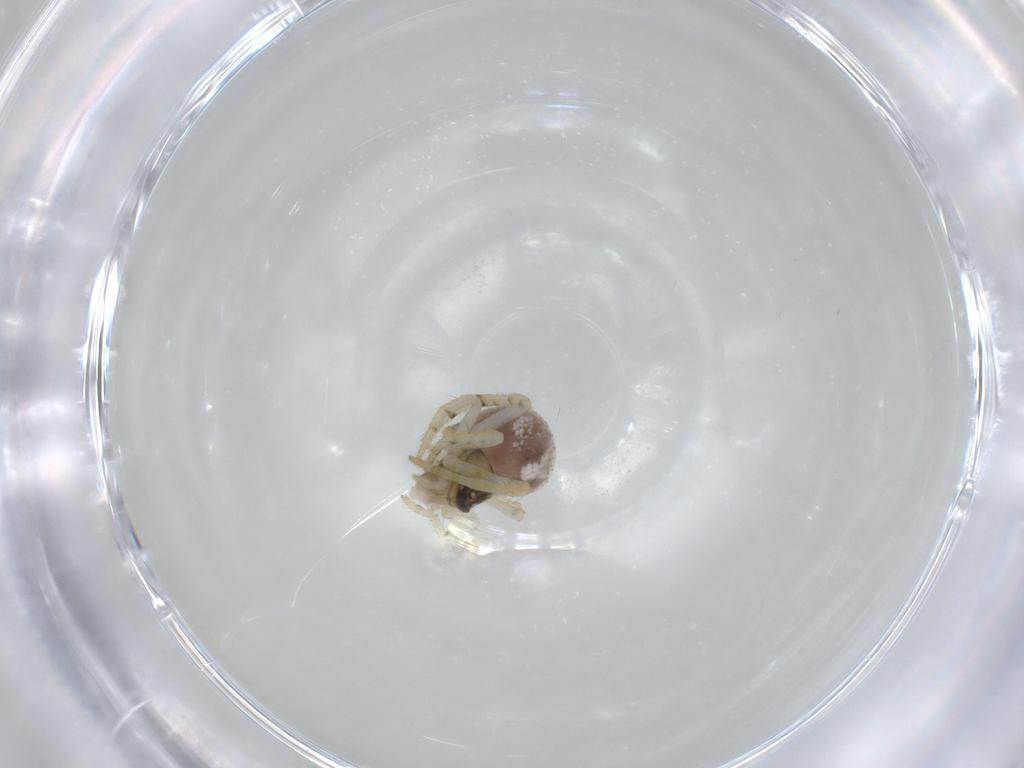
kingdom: Animalia
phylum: Arthropoda
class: Arachnida
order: Araneae
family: Theridiidae
